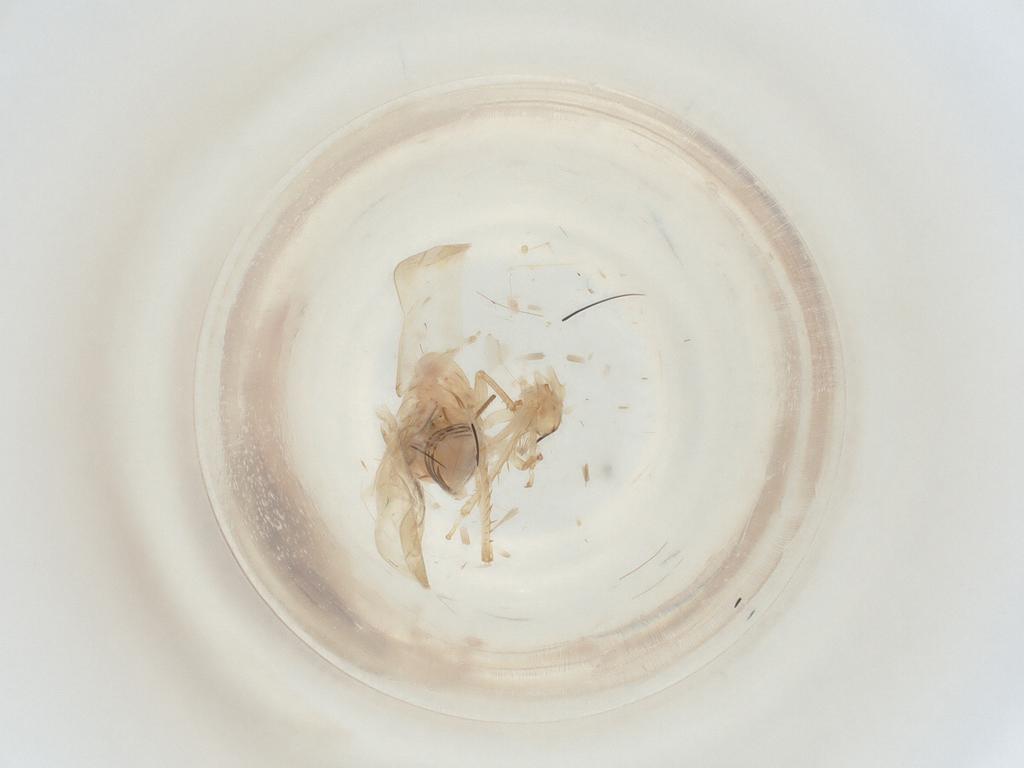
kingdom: Animalia
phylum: Arthropoda
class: Insecta
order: Hemiptera
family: Cicadellidae
